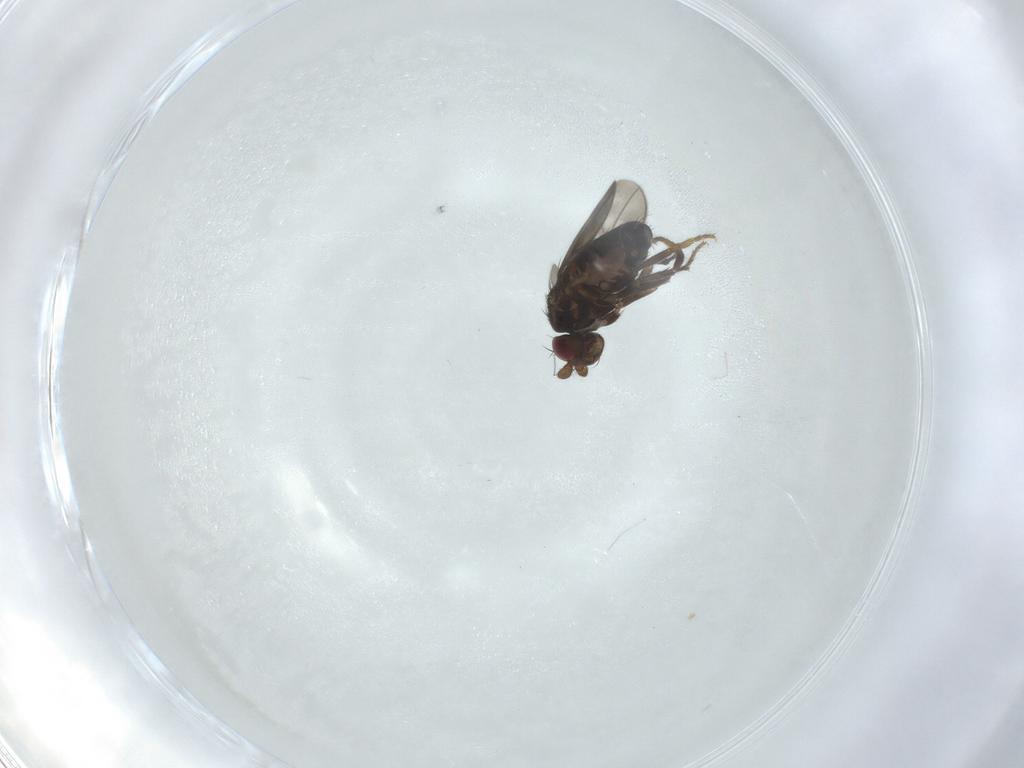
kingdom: Animalia
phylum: Arthropoda
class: Insecta
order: Diptera
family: Sphaeroceridae
